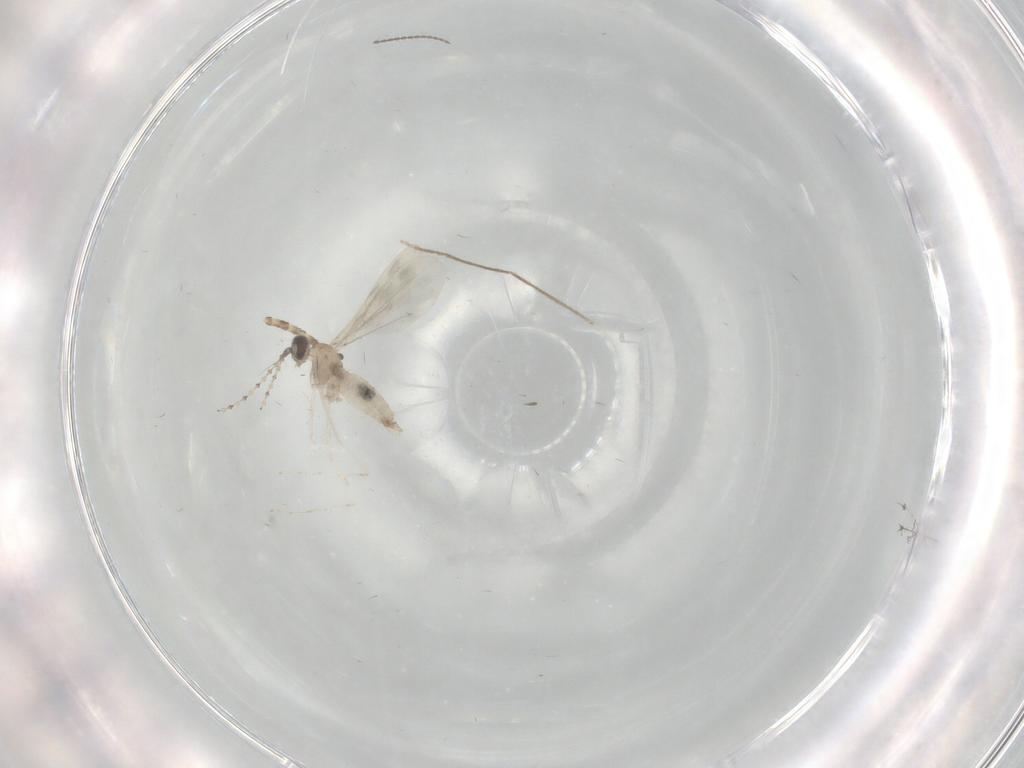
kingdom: Animalia
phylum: Arthropoda
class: Insecta
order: Diptera
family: Cecidomyiidae
